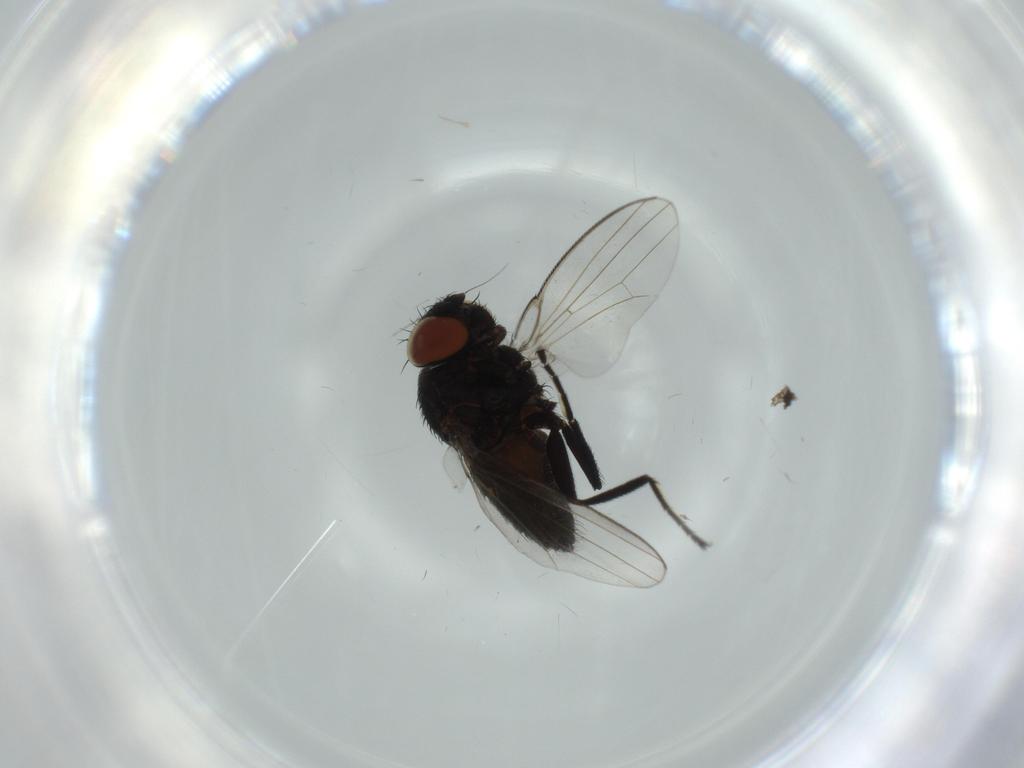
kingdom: Animalia
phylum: Arthropoda
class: Insecta
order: Diptera
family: Milichiidae
